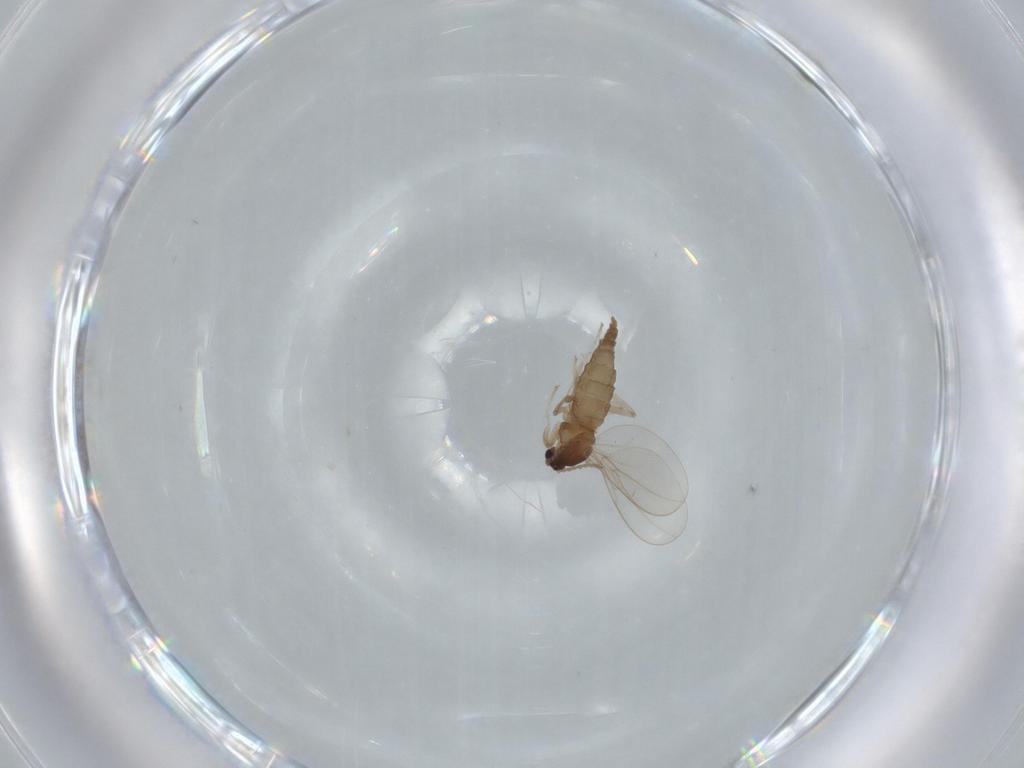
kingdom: Animalia
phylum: Arthropoda
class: Insecta
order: Diptera
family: Cecidomyiidae
